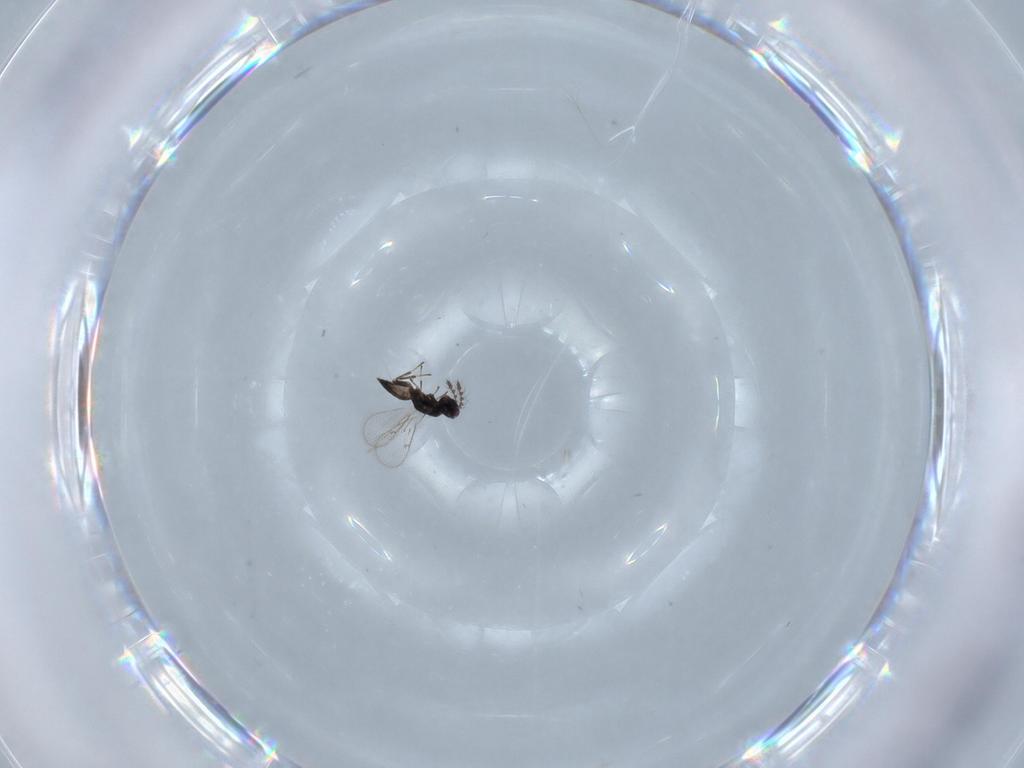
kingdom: Animalia
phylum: Arthropoda
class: Insecta
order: Hymenoptera
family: Eulophidae
